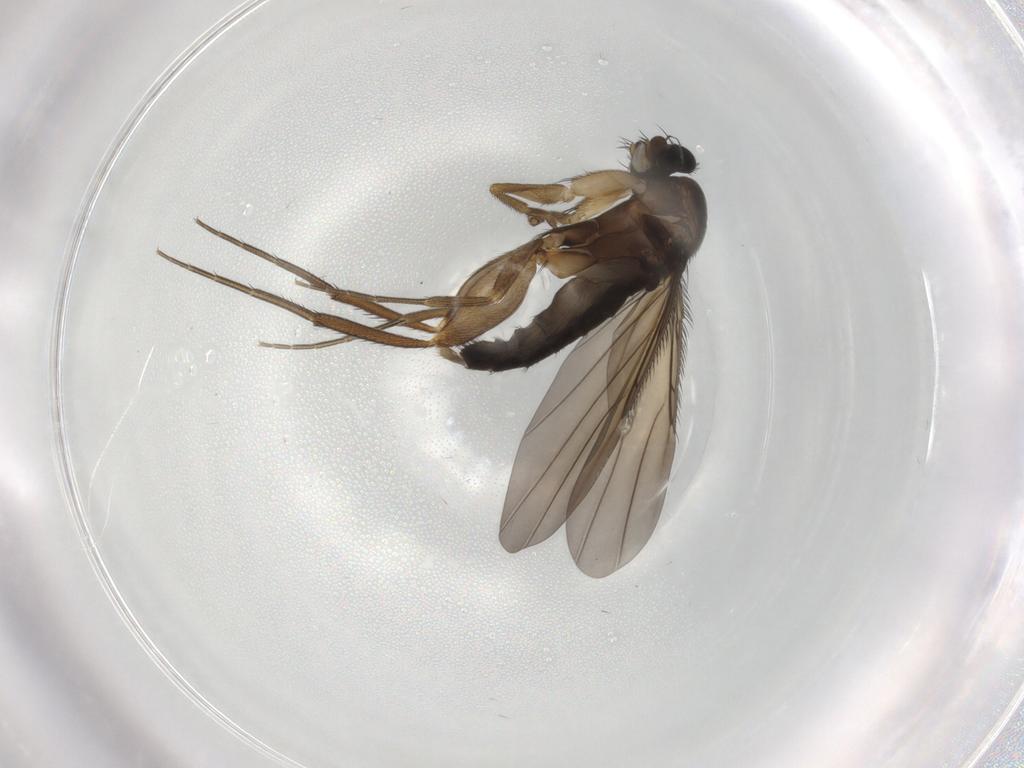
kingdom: Animalia
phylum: Arthropoda
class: Insecta
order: Diptera
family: Phoridae
